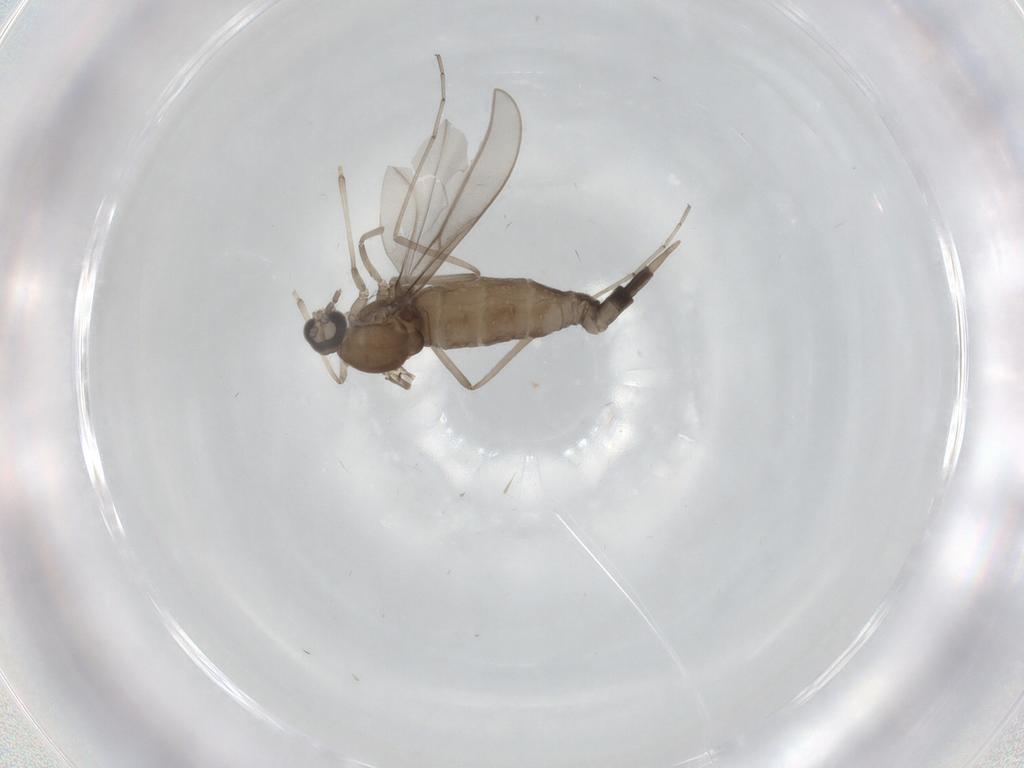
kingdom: Animalia
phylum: Arthropoda
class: Insecta
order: Diptera
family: Cecidomyiidae
